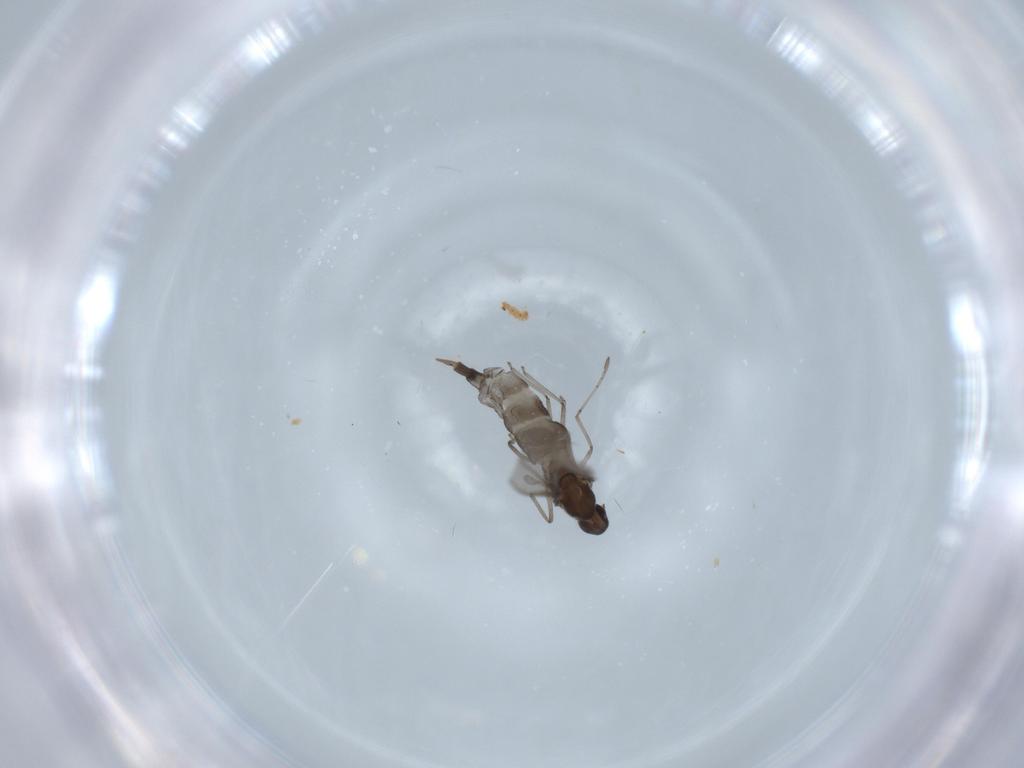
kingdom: Animalia
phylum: Arthropoda
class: Insecta
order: Diptera
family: Cecidomyiidae
